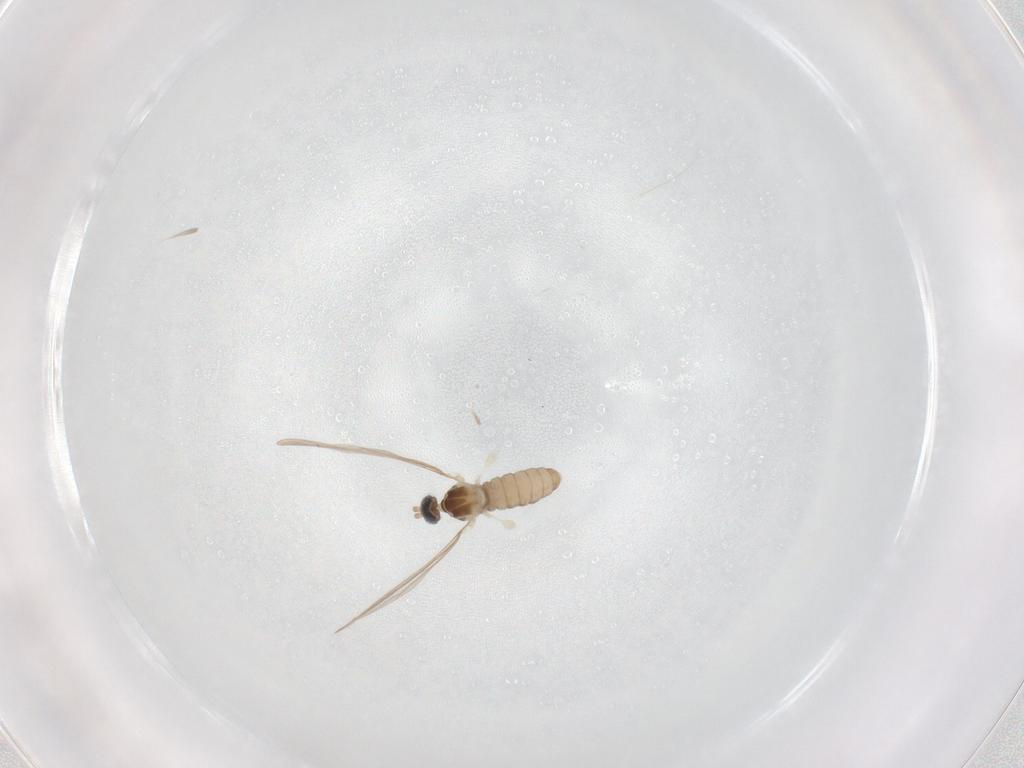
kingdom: Animalia
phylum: Arthropoda
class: Insecta
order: Diptera
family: Cecidomyiidae
